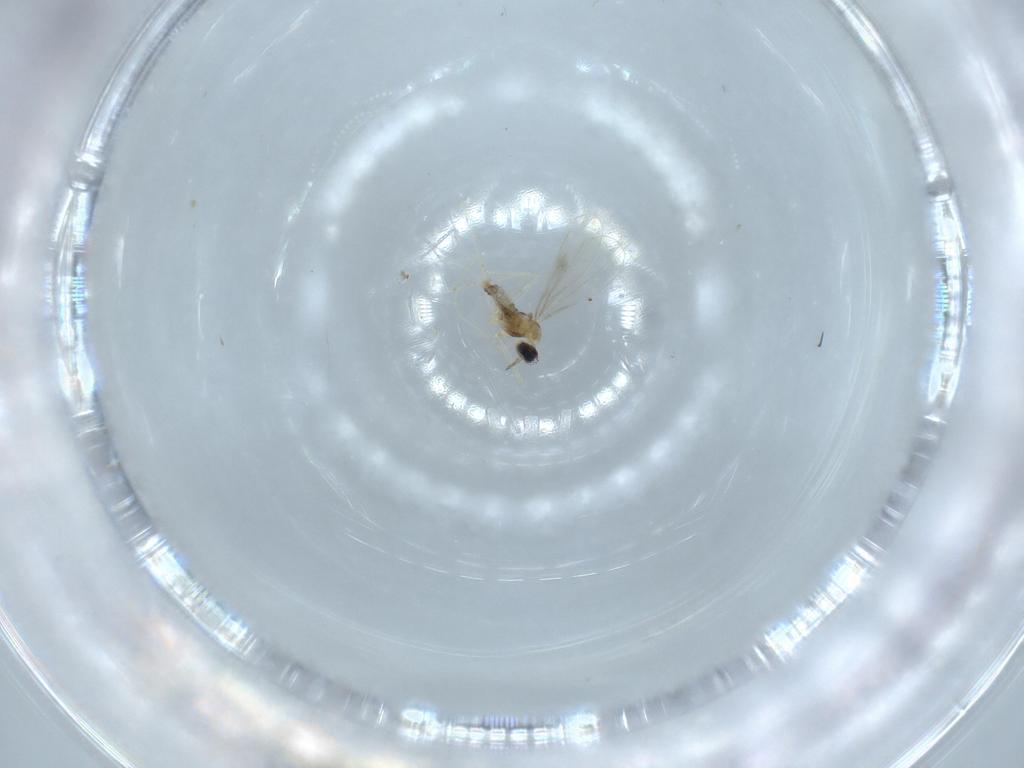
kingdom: Animalia
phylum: Arthropoda
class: Insecta
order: Diptera
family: Cecidomyiidae
